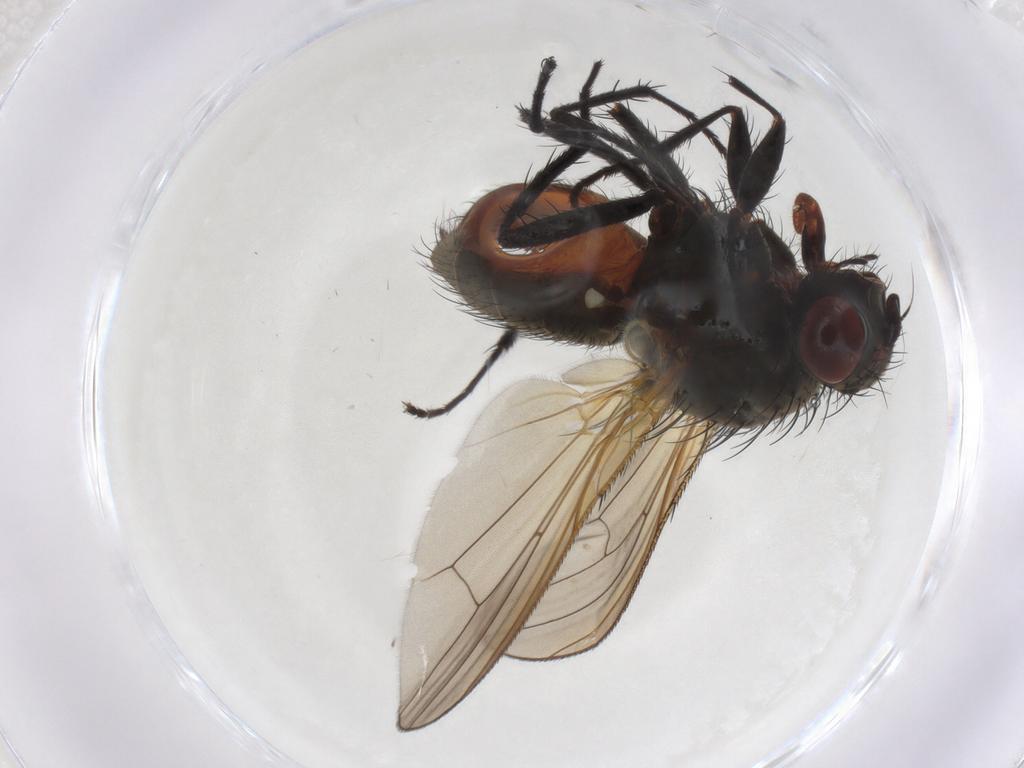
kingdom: Animalia
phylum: Arthropoda
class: Insecta
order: Diptera
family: Anthomyiidae
